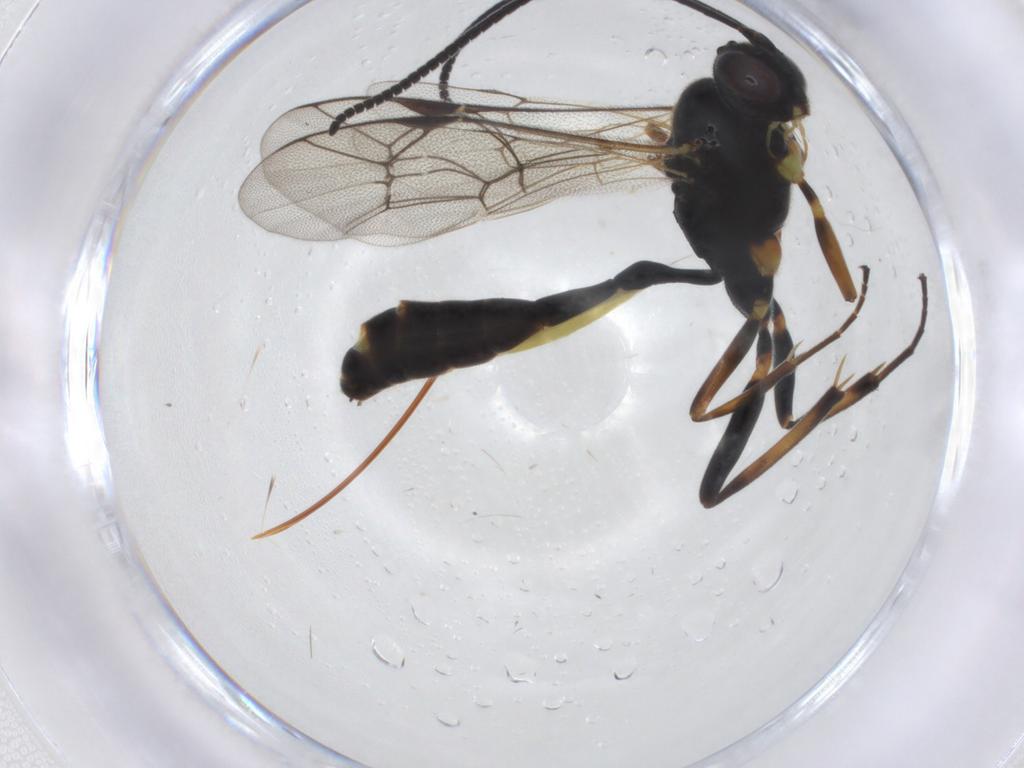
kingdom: Animalia
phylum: Arthropoda
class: Insecta
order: Hymenoptera
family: Ichneumonidae
